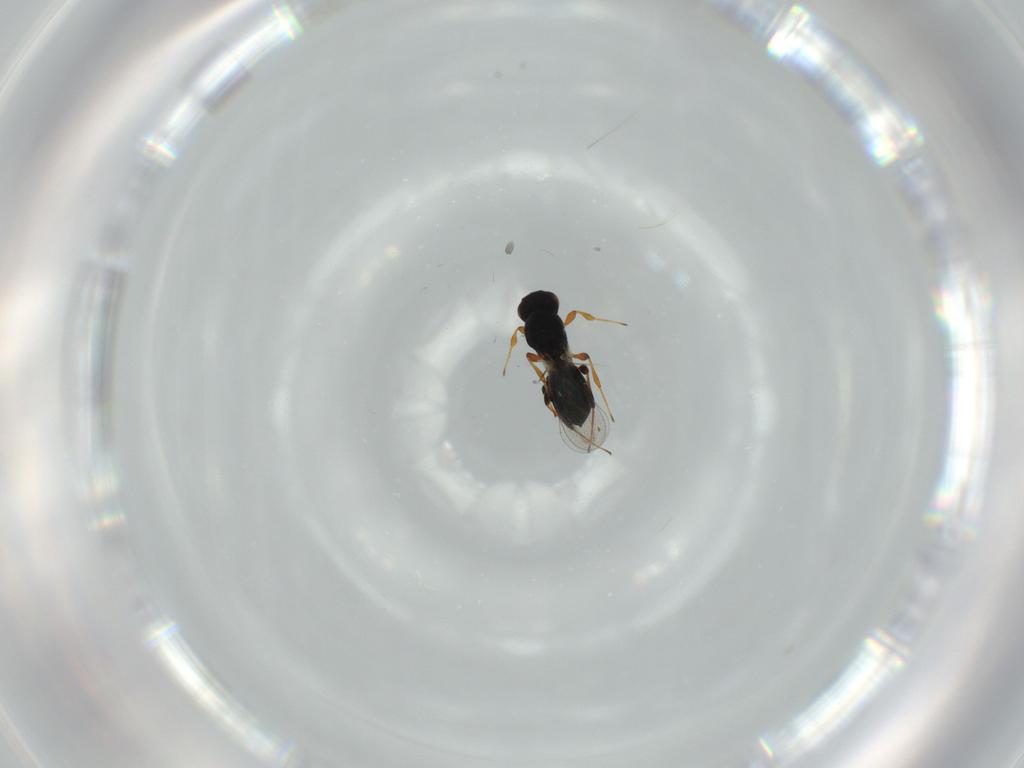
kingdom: Animalia
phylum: Arthropoda
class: Insecta
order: Hymenoptera
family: Platygastridae
